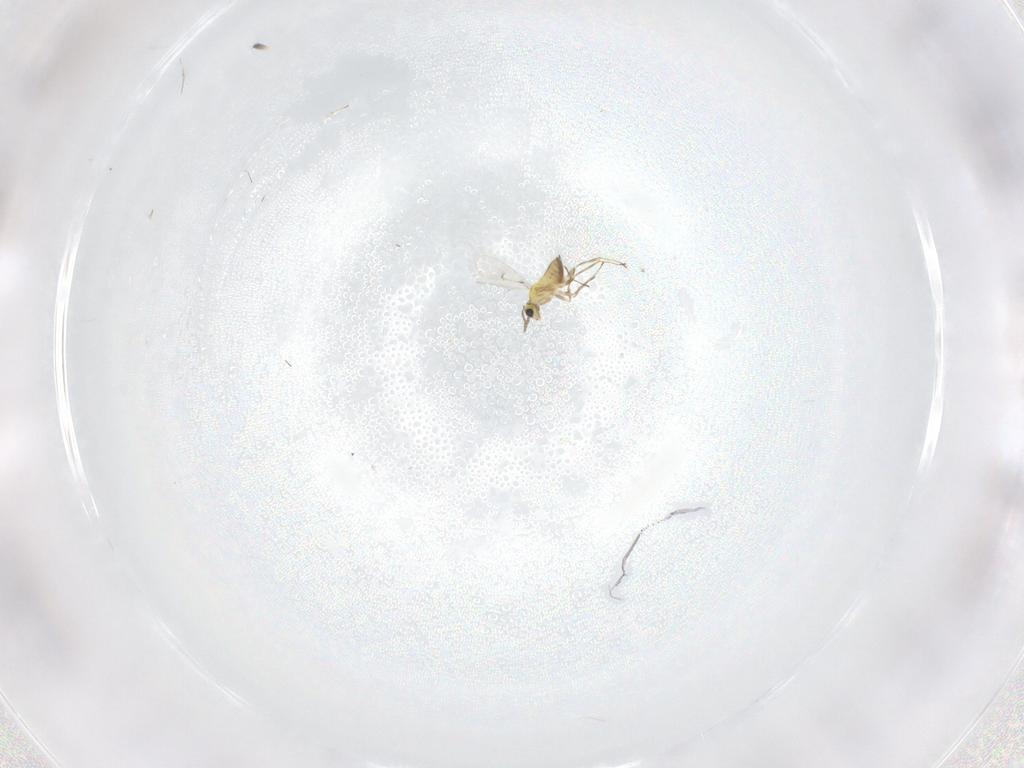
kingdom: Animalia
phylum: Arthropoda
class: Insecta
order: Hymenoptera
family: Trichogrammatidae
